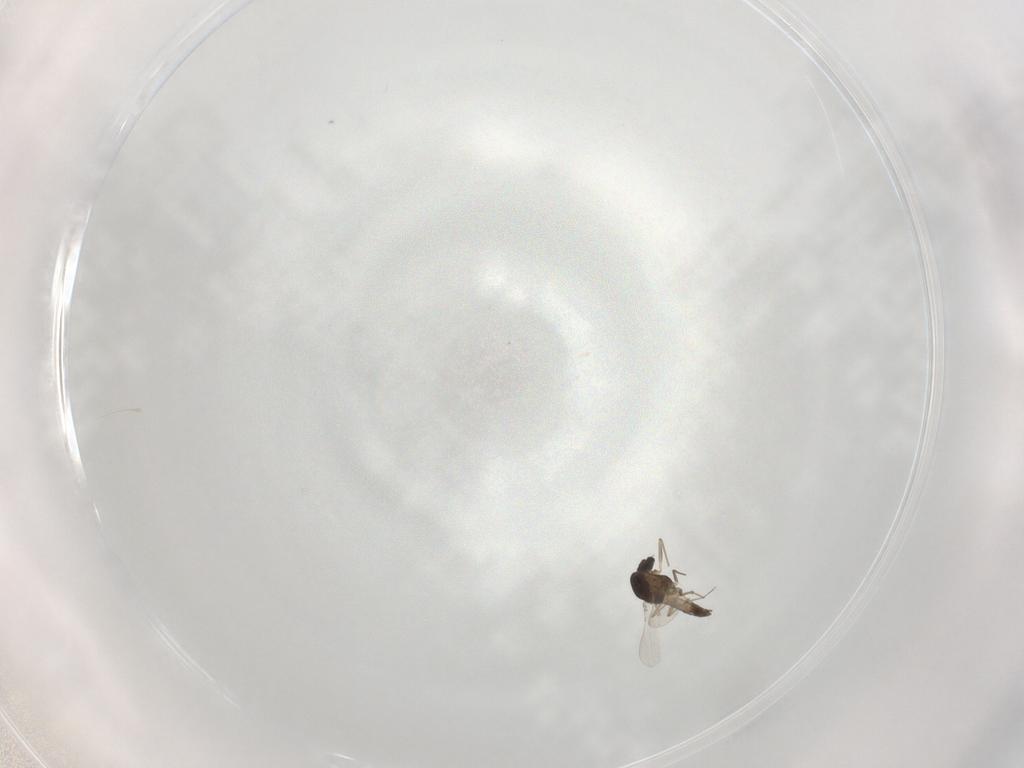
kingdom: Animalia
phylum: Arthropoda
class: Insecta
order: Diptera
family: Chironomidae
